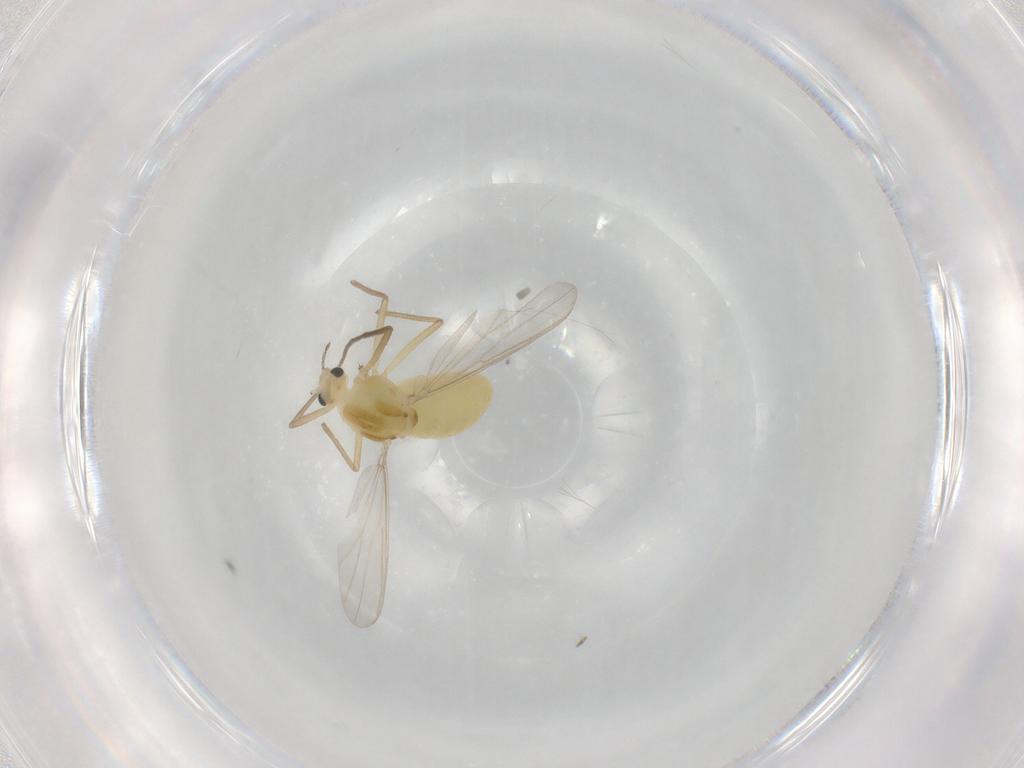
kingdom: Animalia
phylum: Arthropoda
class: Insecta
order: Diptera
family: Chironomidae
